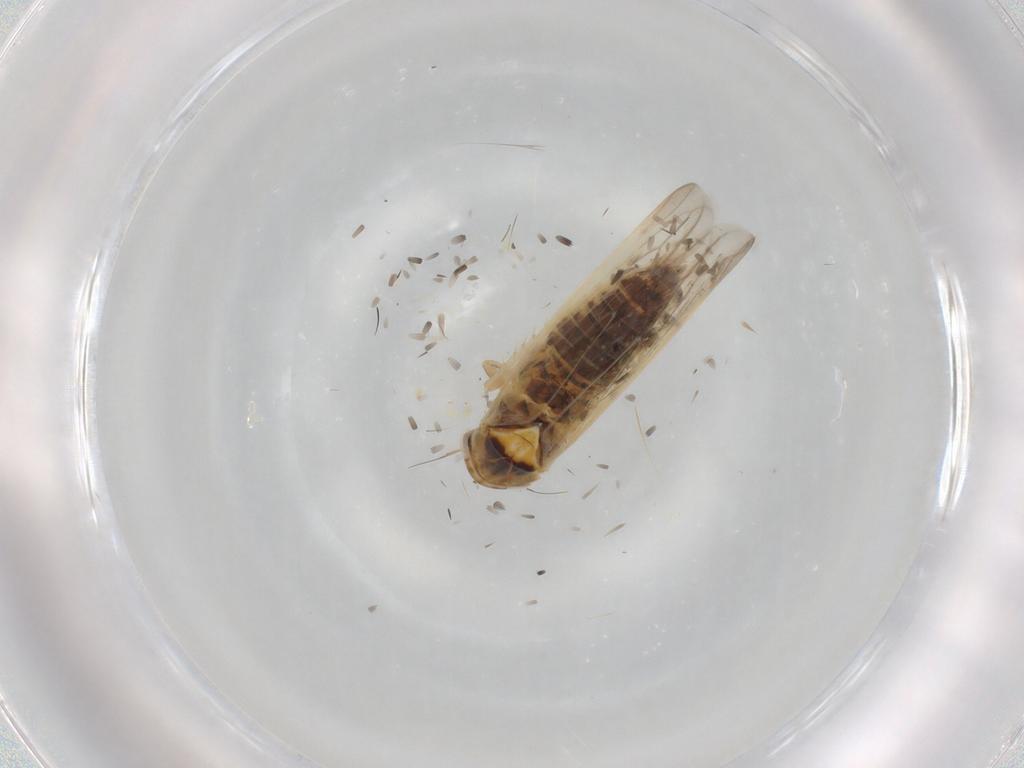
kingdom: Animalia
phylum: Arthropoda
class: Insecta
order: Hemiptera
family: Cicadellidae
